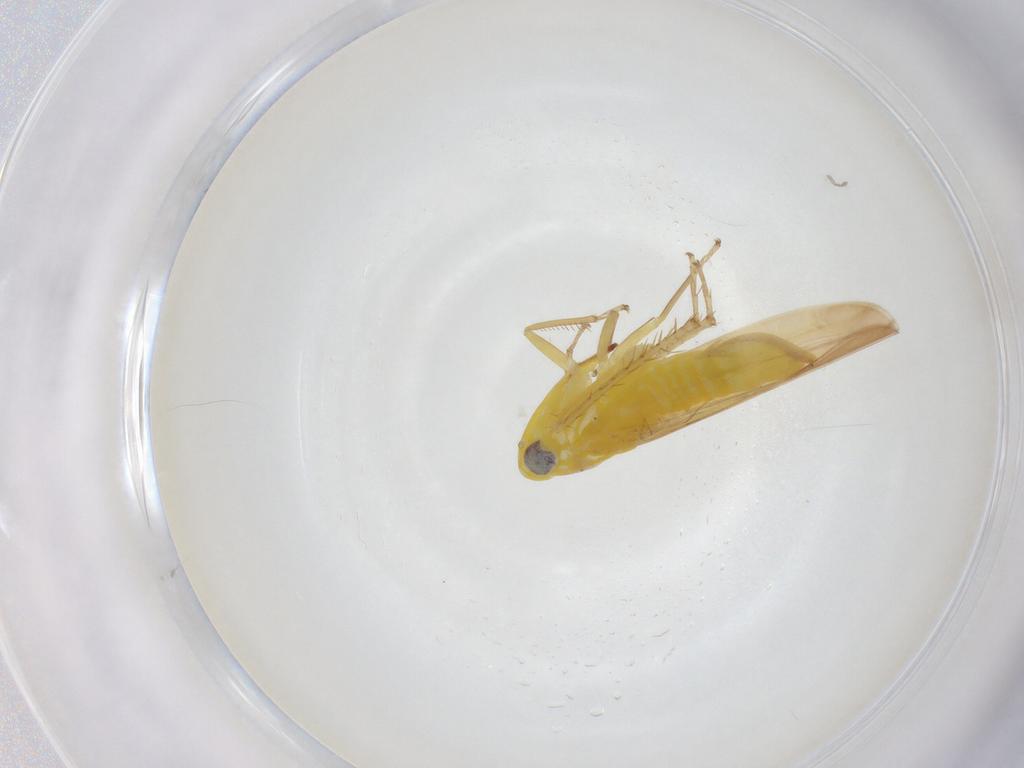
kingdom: Animalia
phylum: Arthropoda
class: Insecta
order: Hemiptera
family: Cicadellidae
